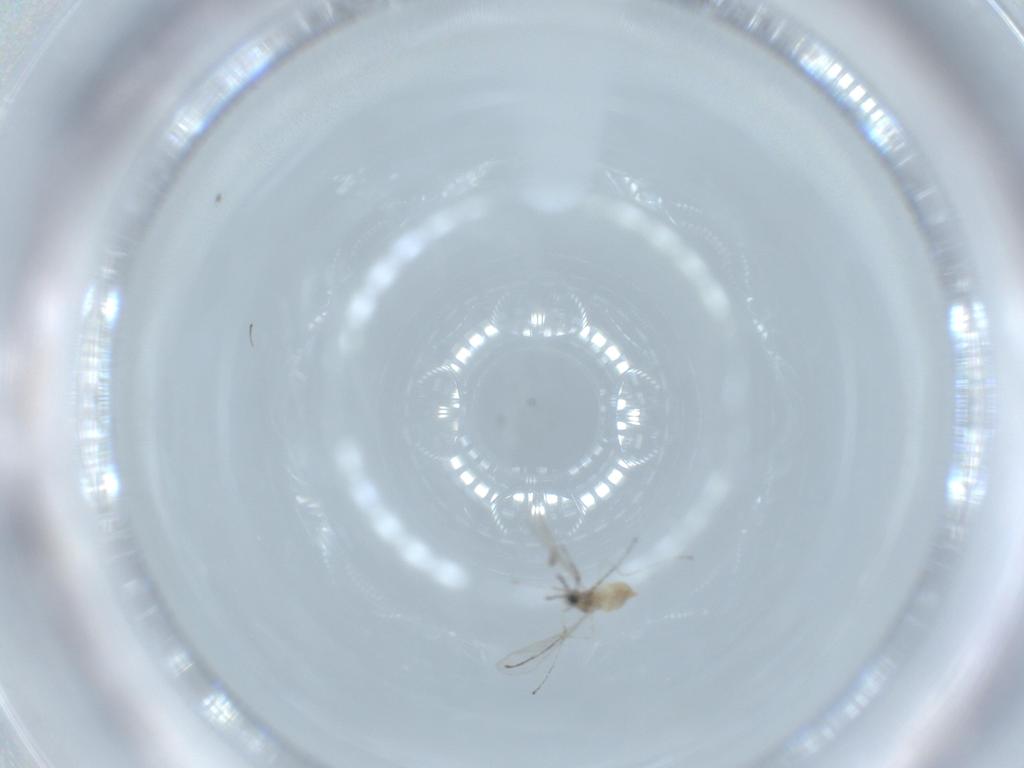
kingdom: Animalia
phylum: Arthropoda
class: Insecta
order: Diptera
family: Cecidomyiidae
